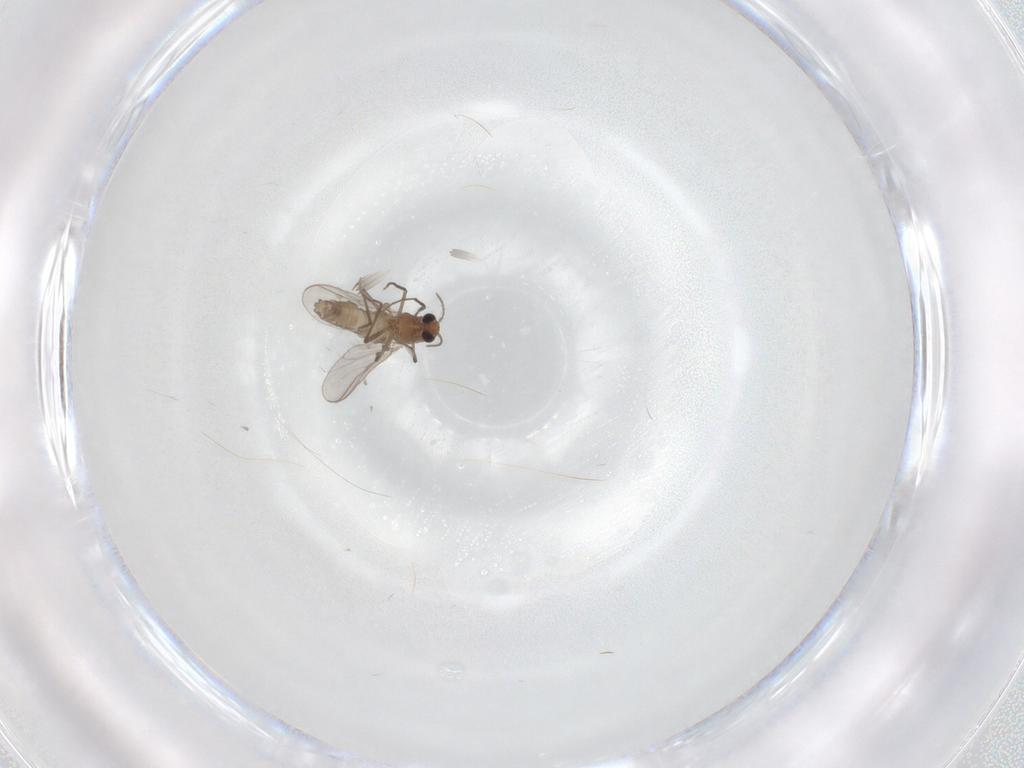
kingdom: Animalia
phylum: Arthropoda
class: Insecta
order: Diptera
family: Chironomidae
